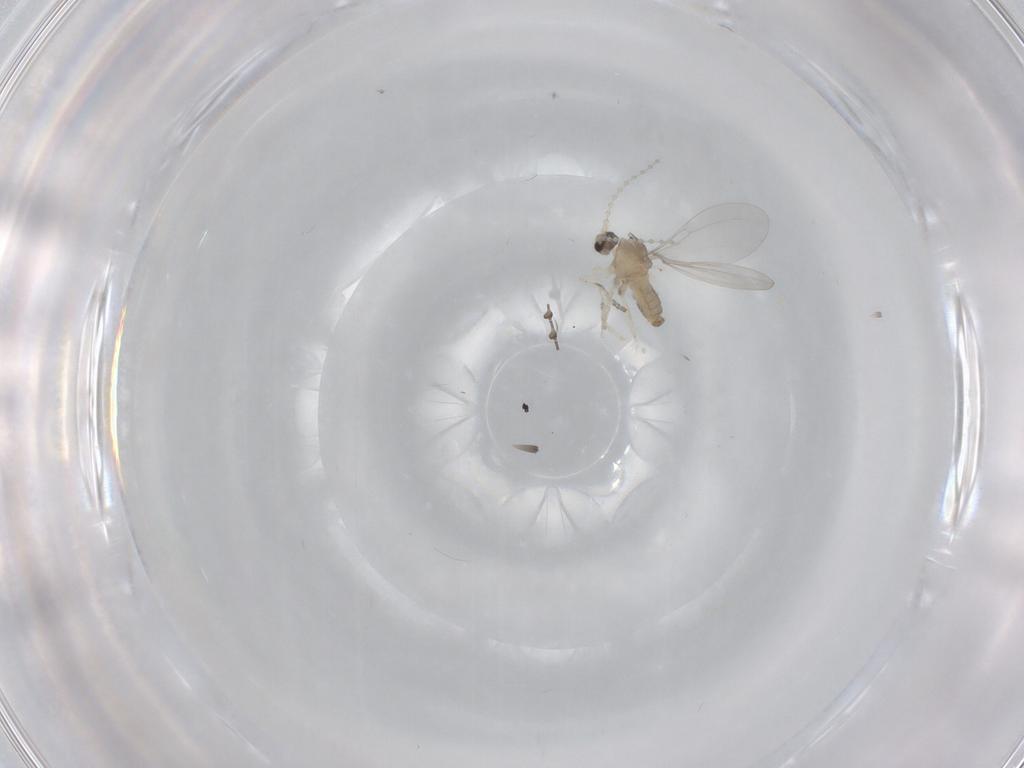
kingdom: Animalia
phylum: Arthropoda
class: Insecta
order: Diptera
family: Cecidomyiidae
